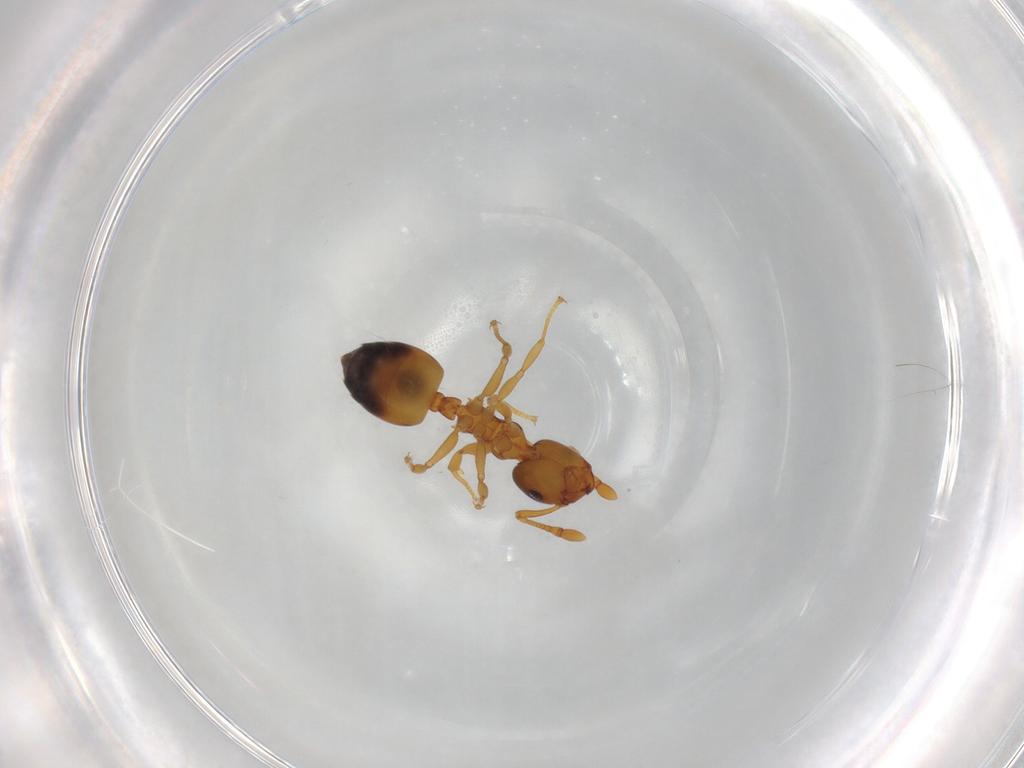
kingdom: Animalia
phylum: Arthropoda
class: Insecta
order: Hymenoptera
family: Formicidae
